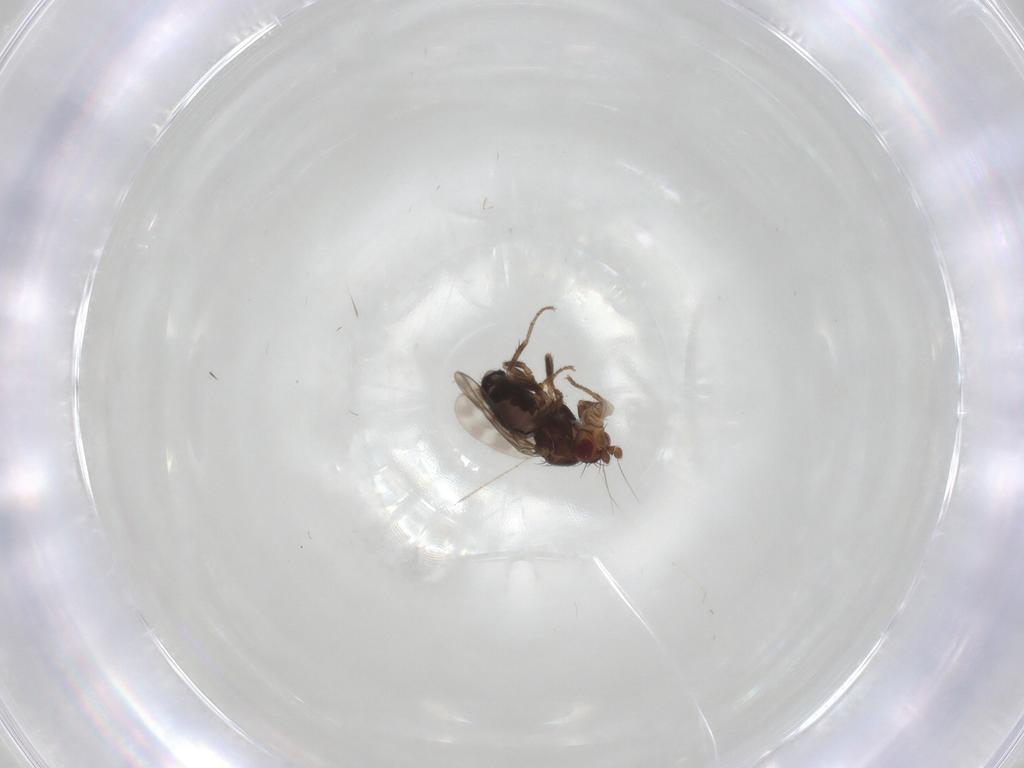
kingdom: Animalia
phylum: Arthropoda
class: Insecta
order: Diptera
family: Sphaeroceridae
